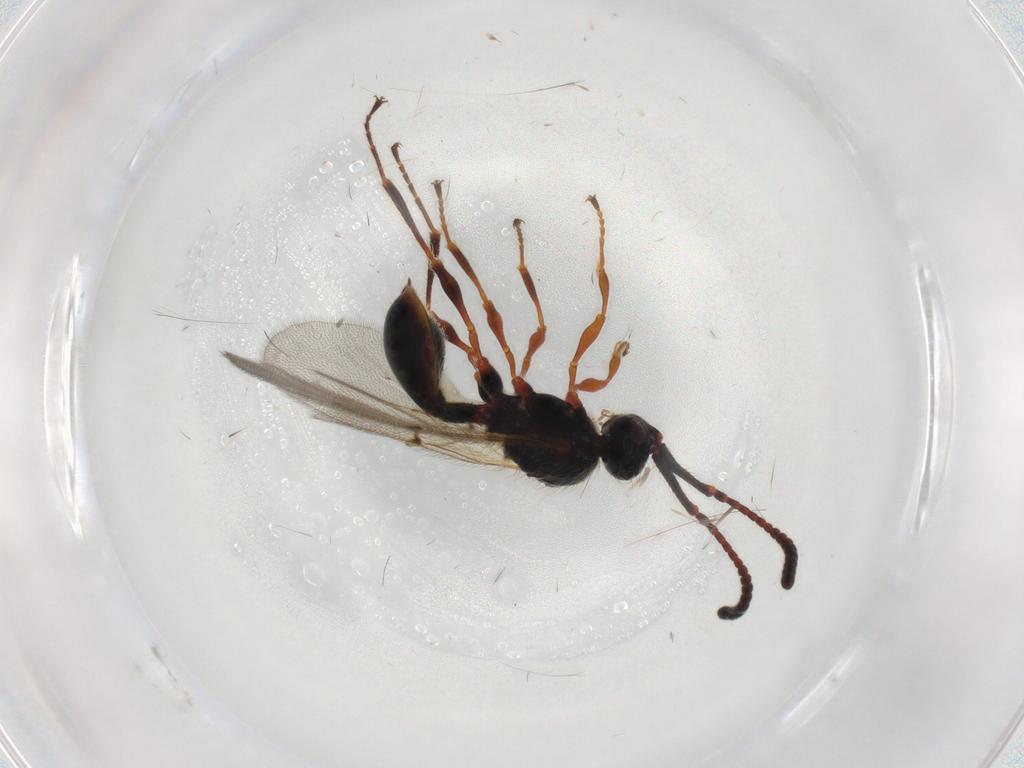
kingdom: Animalia
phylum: Arthropoda
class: Insecta
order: Hymenoptera
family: Diapriidae
